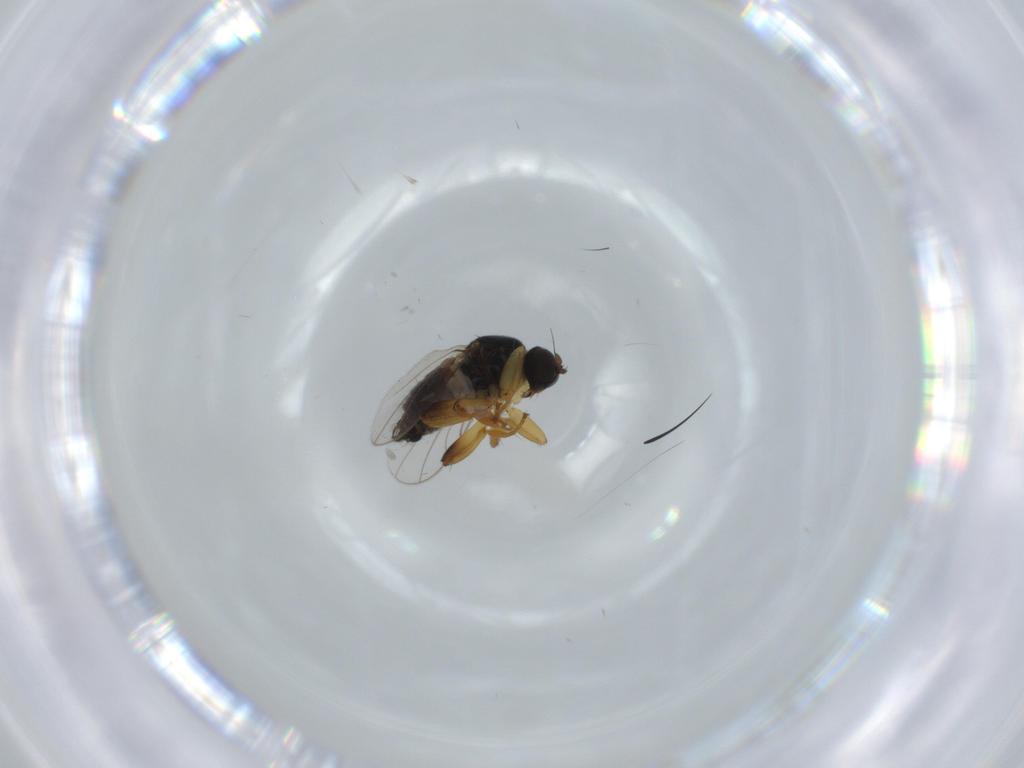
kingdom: Animalia
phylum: Arthropoda
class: Insecta
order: Diptera
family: Hybotidae
